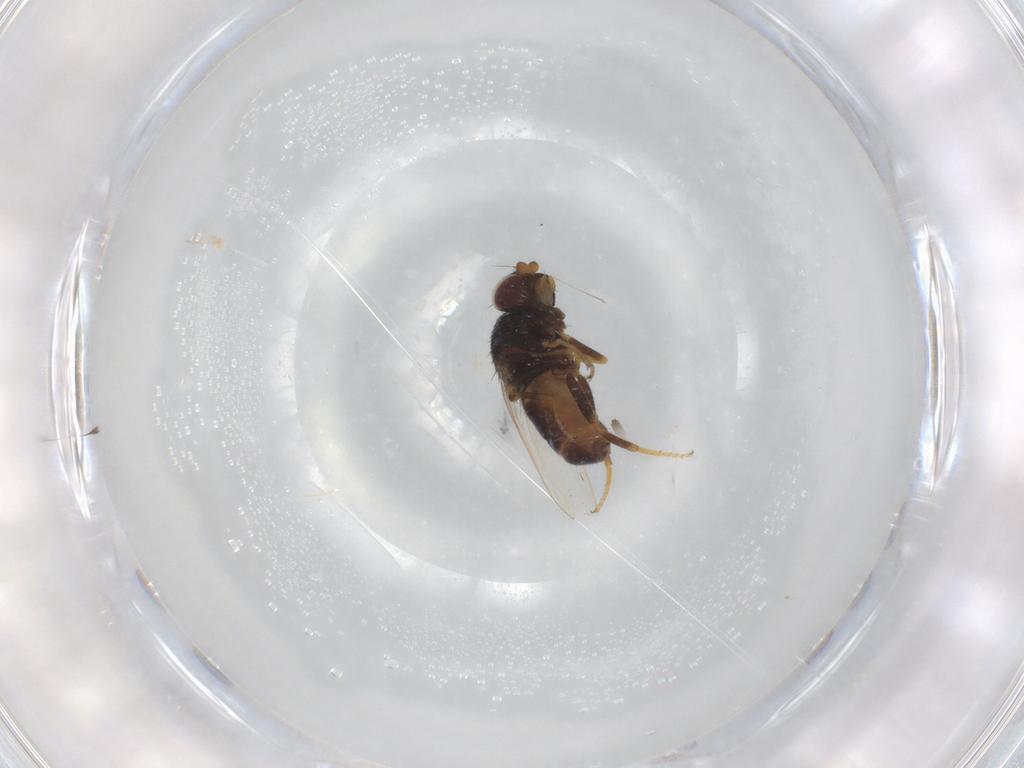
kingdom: Animalia
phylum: Arthropoda
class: Insecta
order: Diptera
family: Chloropidae
